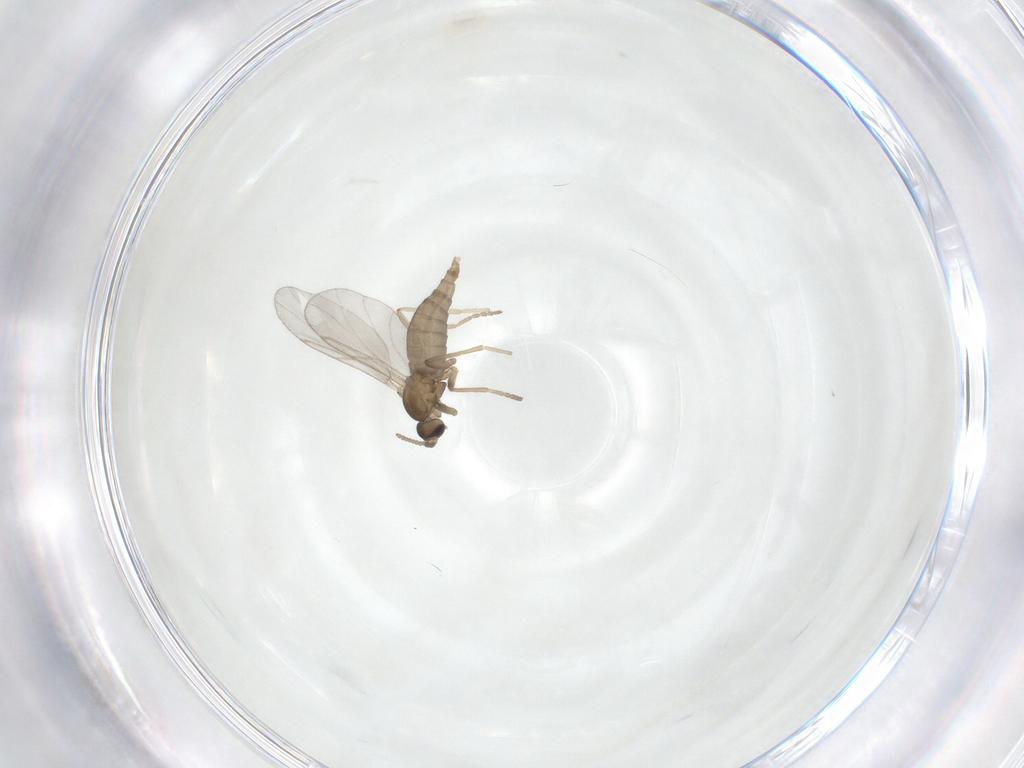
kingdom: Animalia
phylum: Arthropoda
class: Insecta
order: Diptera
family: Cecidomyiidae
